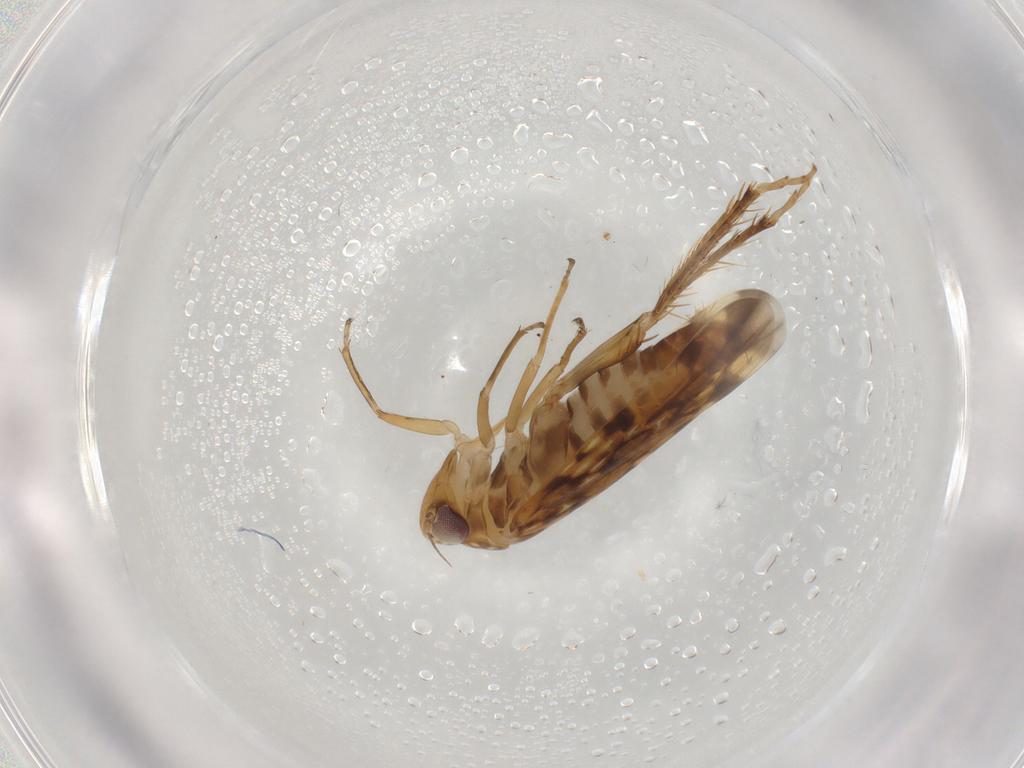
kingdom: Animalia
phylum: Arthropoda
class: Insecta
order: Hemiptera
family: Cicadellidae
